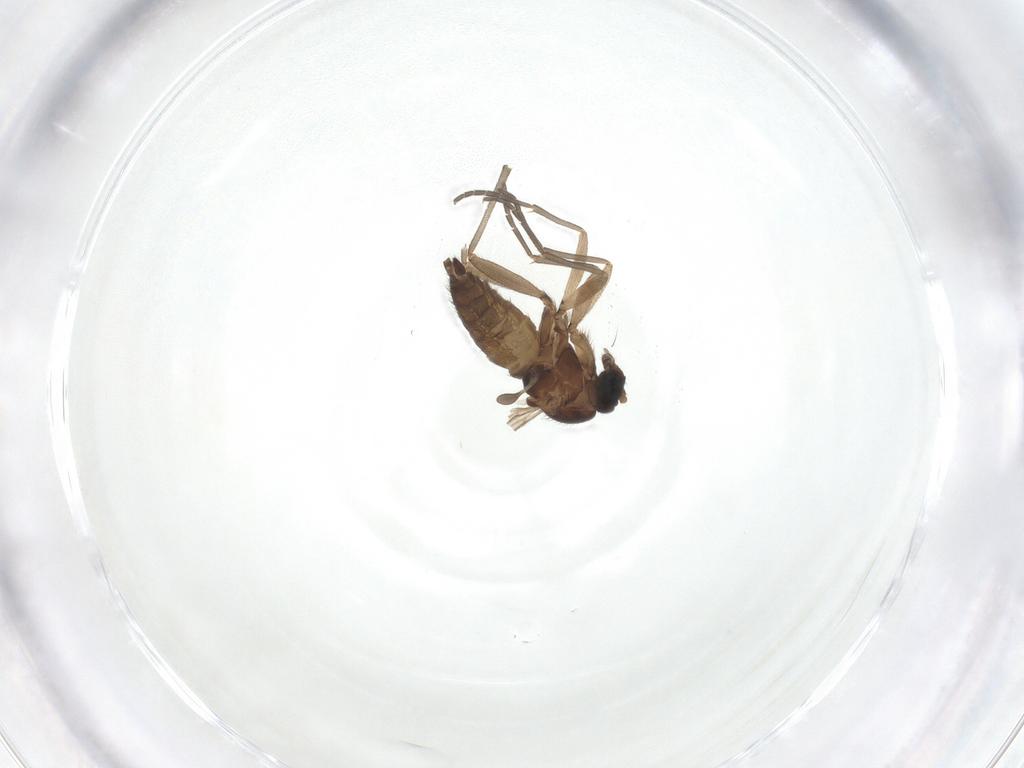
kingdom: Animalia
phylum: Arthropoda
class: Insecta
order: Diptera
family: Sciaridae
